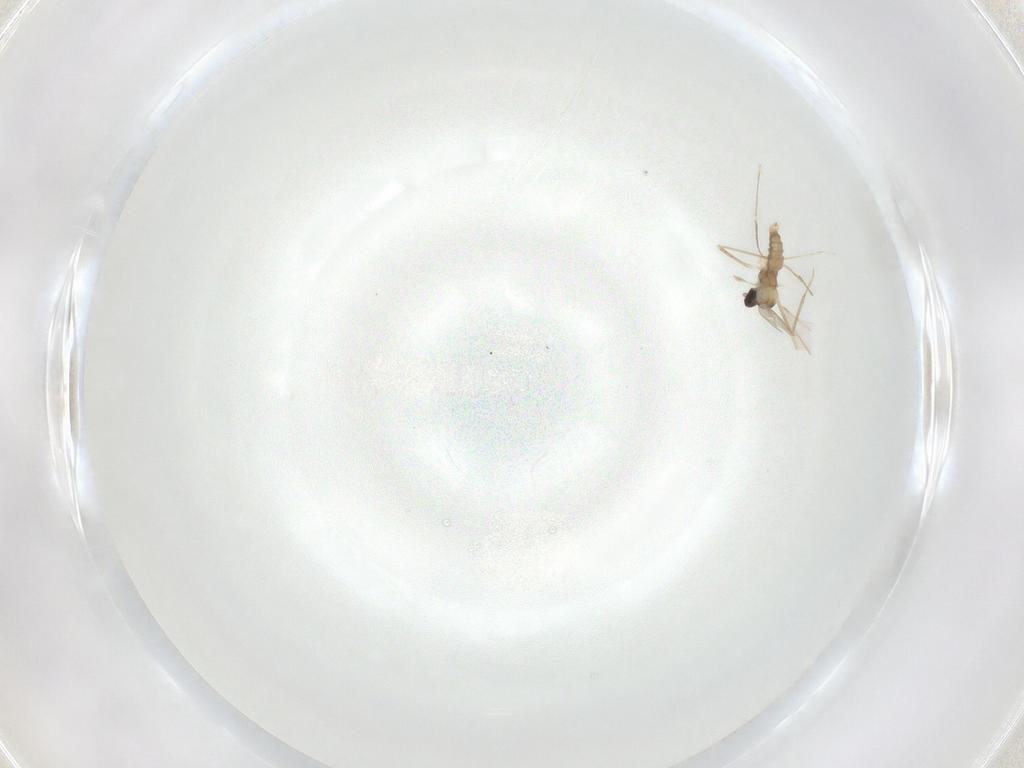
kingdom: Animalia
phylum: Arthropoda
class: Insecta
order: Diptera
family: Cecidomyiidae
